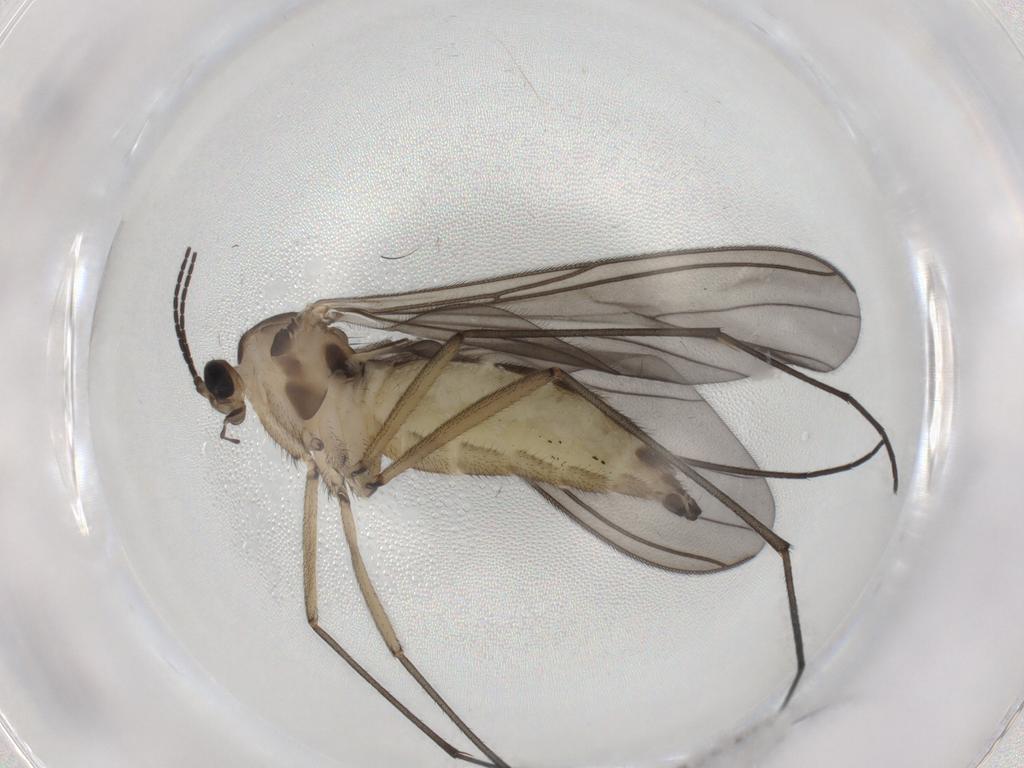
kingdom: Animalia
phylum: Arthropoda
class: Insecta
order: Diptera
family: Sciaridae
